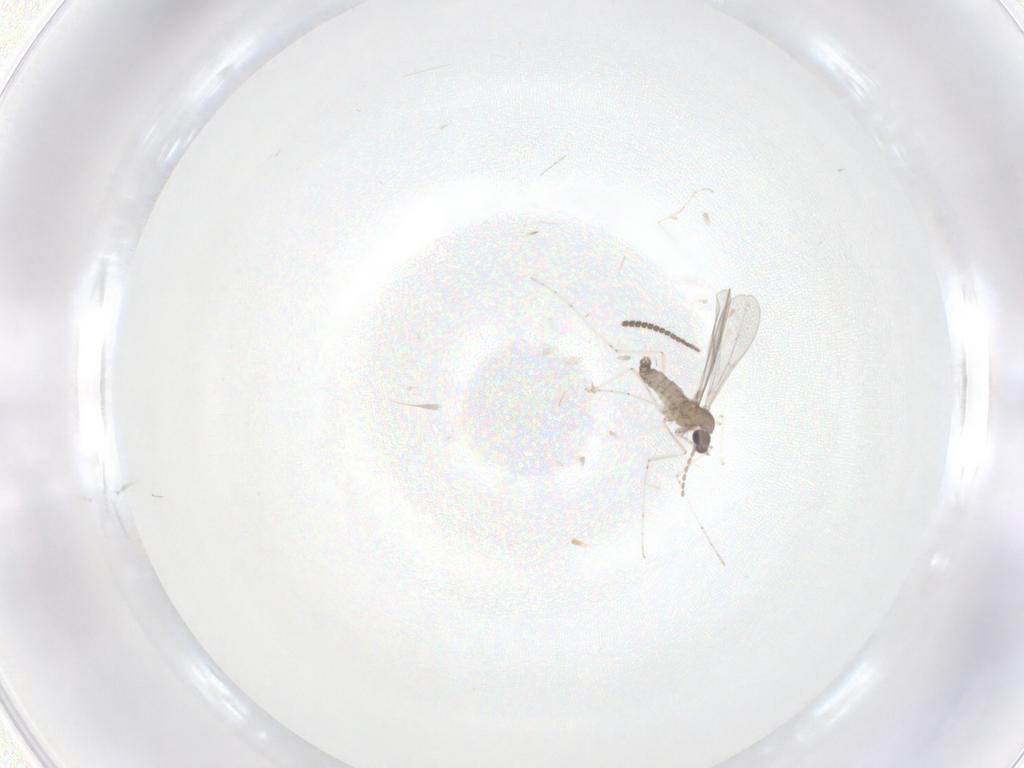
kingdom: Animalia
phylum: Arthropoda
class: Insecta
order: Diptera
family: Cecidomyiidae
